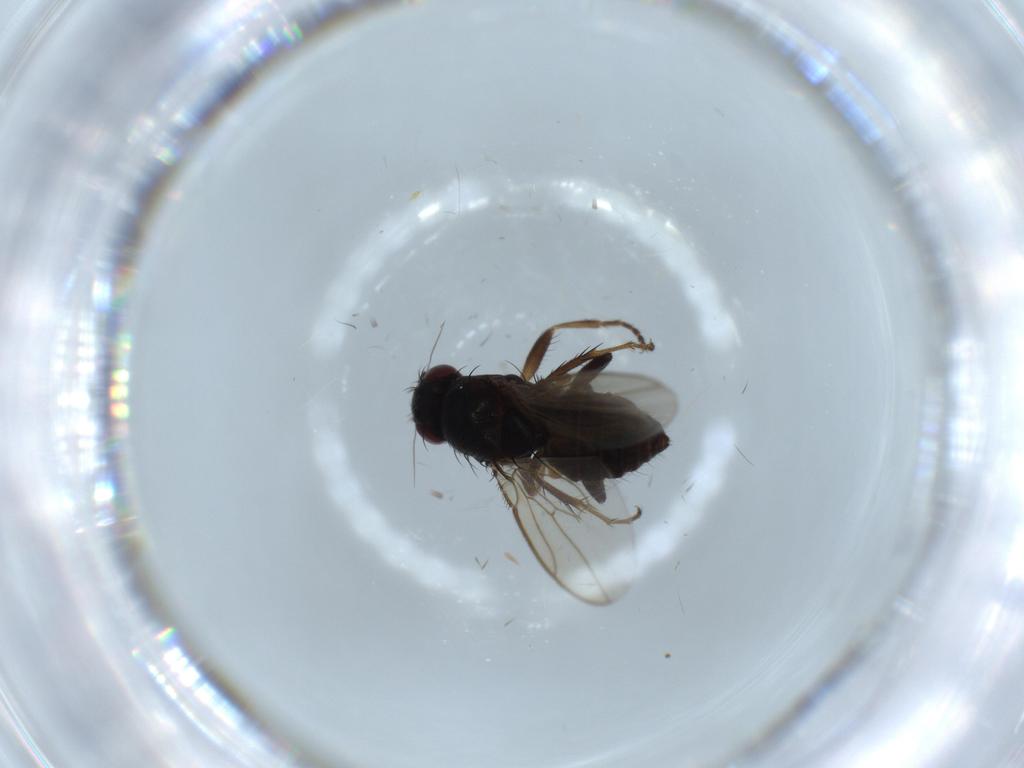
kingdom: Animalia
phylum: Arthropoda
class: Insecta
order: Diptera
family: Sphaeroceridae
